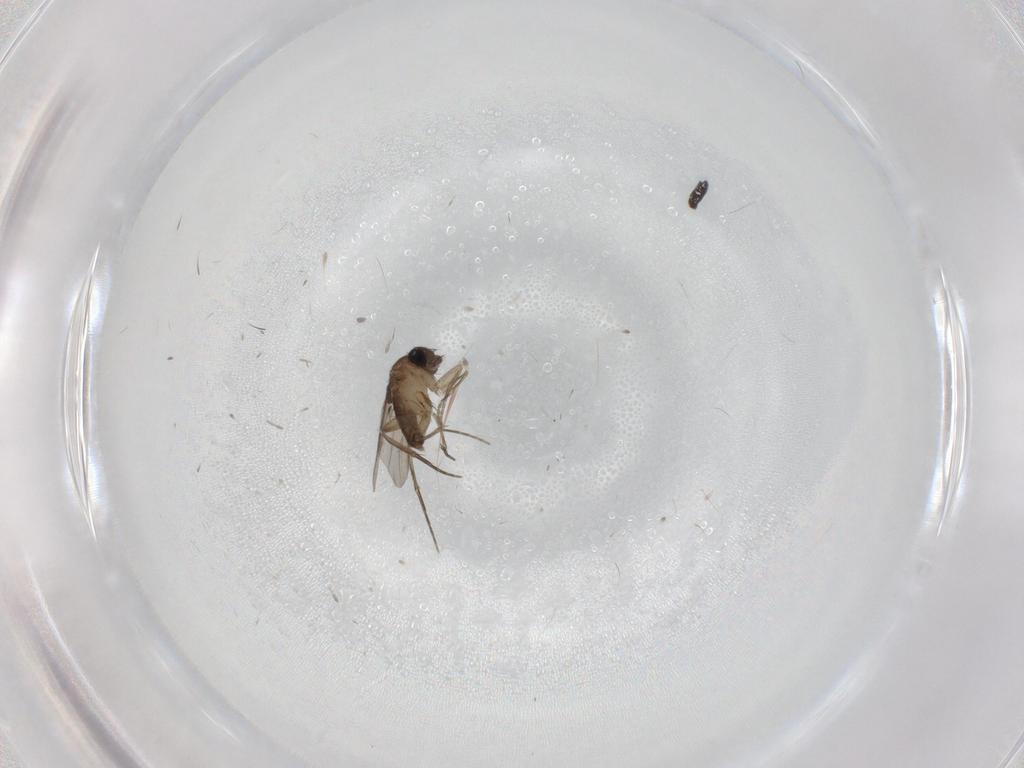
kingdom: Animalia
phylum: Arthropoda
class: Insecta
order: Diptera
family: Phoridae
